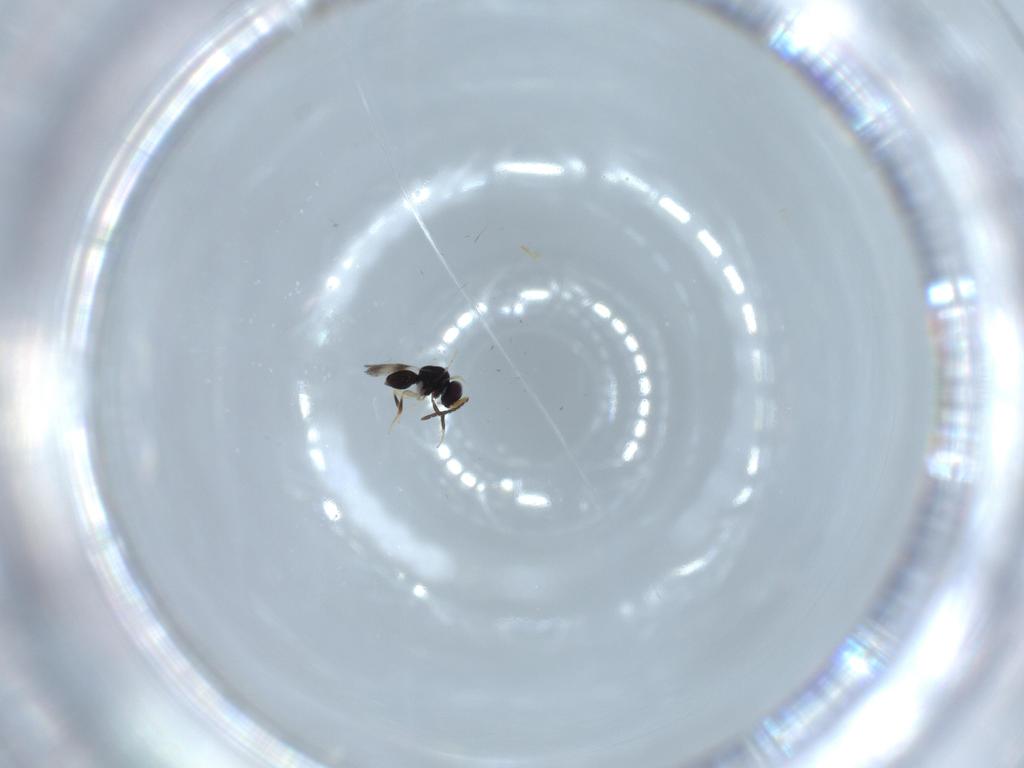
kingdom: Animalia
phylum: Arthropoda
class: Insecta
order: Hymenoptera
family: Ceraphronidae
